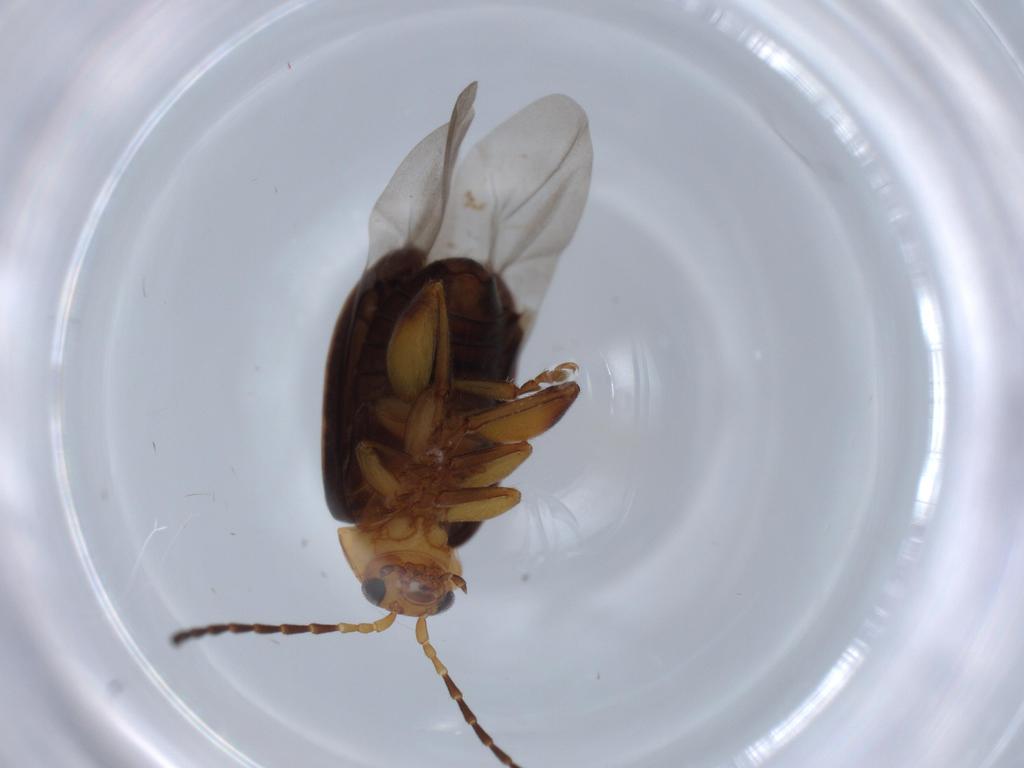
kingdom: Animalia
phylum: Arthropoda
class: Insecta
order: Coleoptera
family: Chrysomelidae
